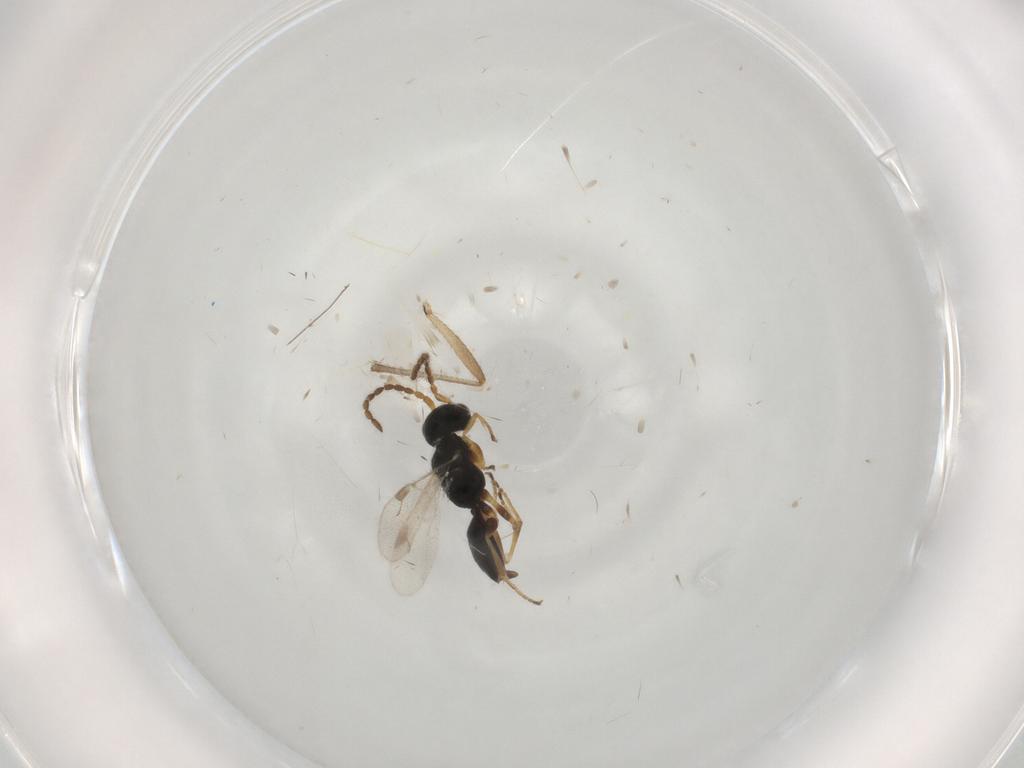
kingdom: Animalia
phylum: Arthropoda
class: Insecta
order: Hymenoptera
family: Dryinidae
